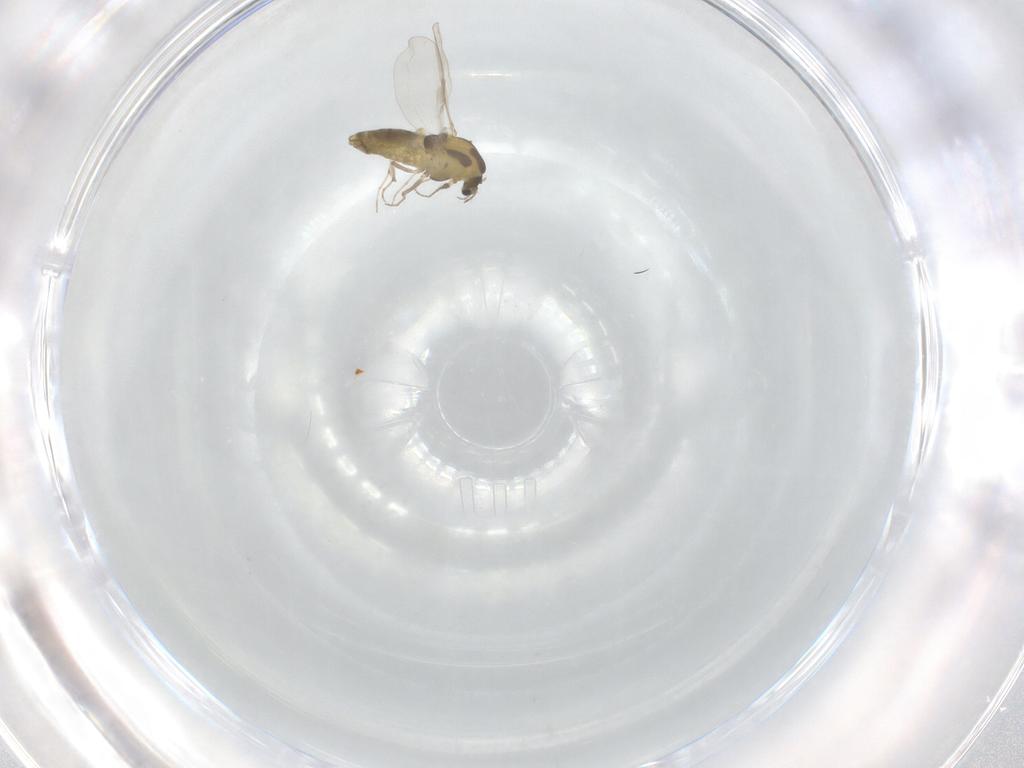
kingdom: Animalia
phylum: Arthropoda
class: Insecta
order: Diptera
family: Chironomidae
